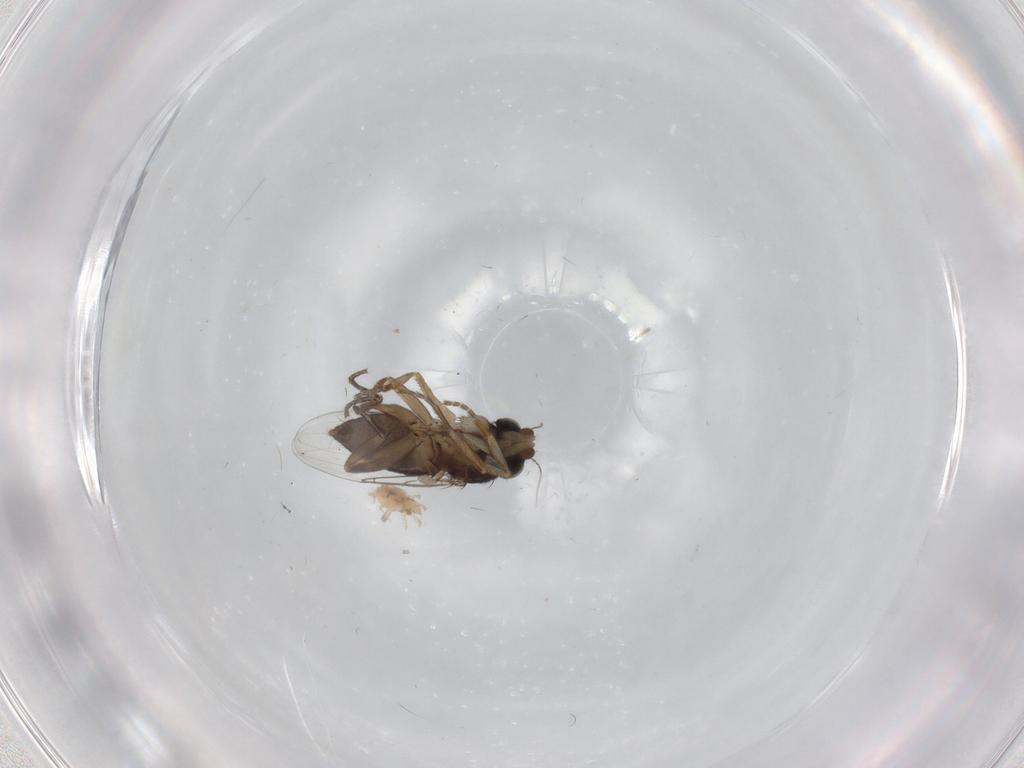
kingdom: Animalia
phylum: Arthropoda
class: Insecta
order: Diptera
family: Phoridae
